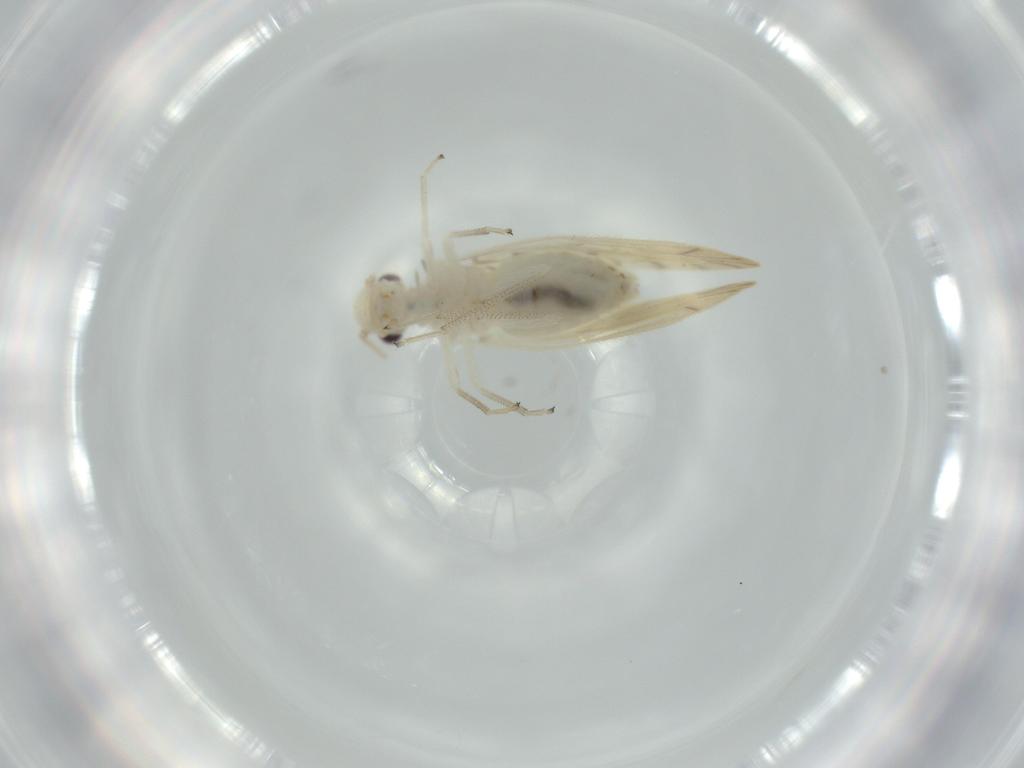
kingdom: Animalia
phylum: Arthropoda
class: Insecta
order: Psocodea
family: Caeciliusidae
